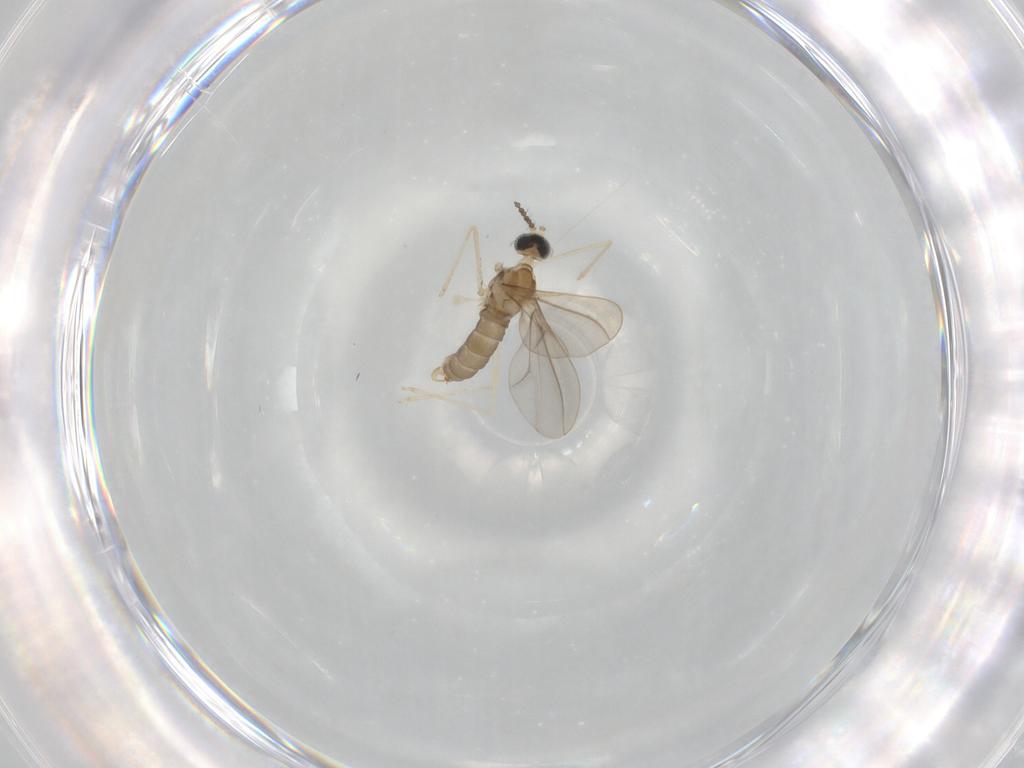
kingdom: Animalia
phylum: Arthropoda
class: Insecta
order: Diptera
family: Cecidomyiidae
